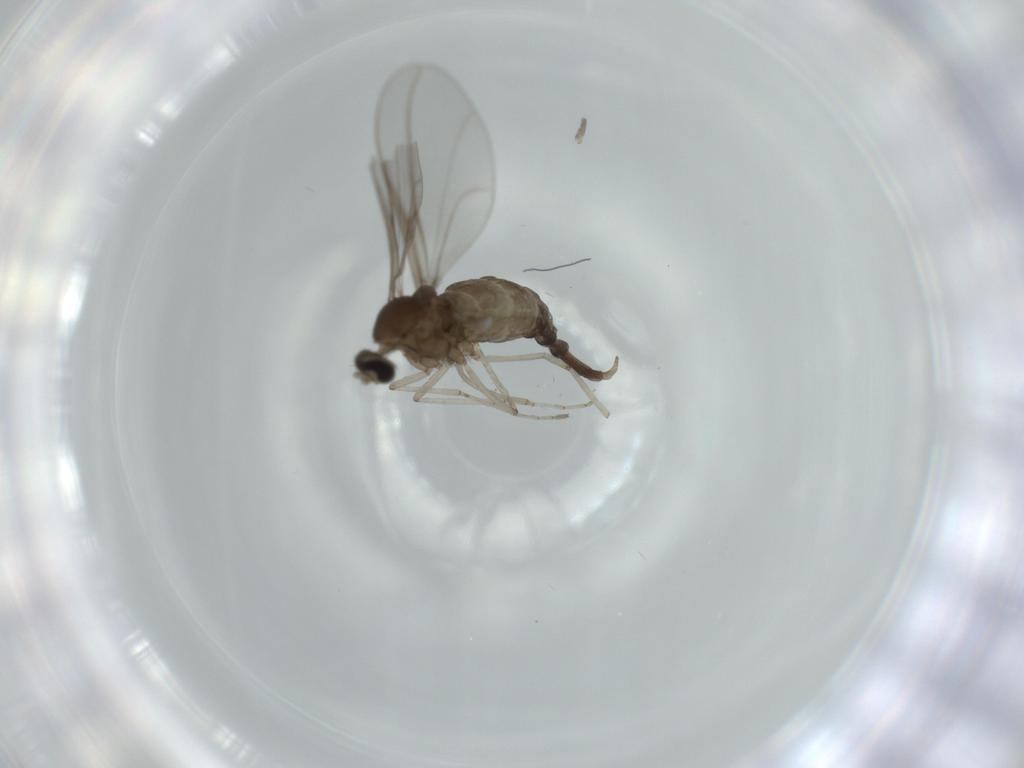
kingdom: Animalia
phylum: Arthropoda
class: Insecta
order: Diptera
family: Cecidomyiidae
